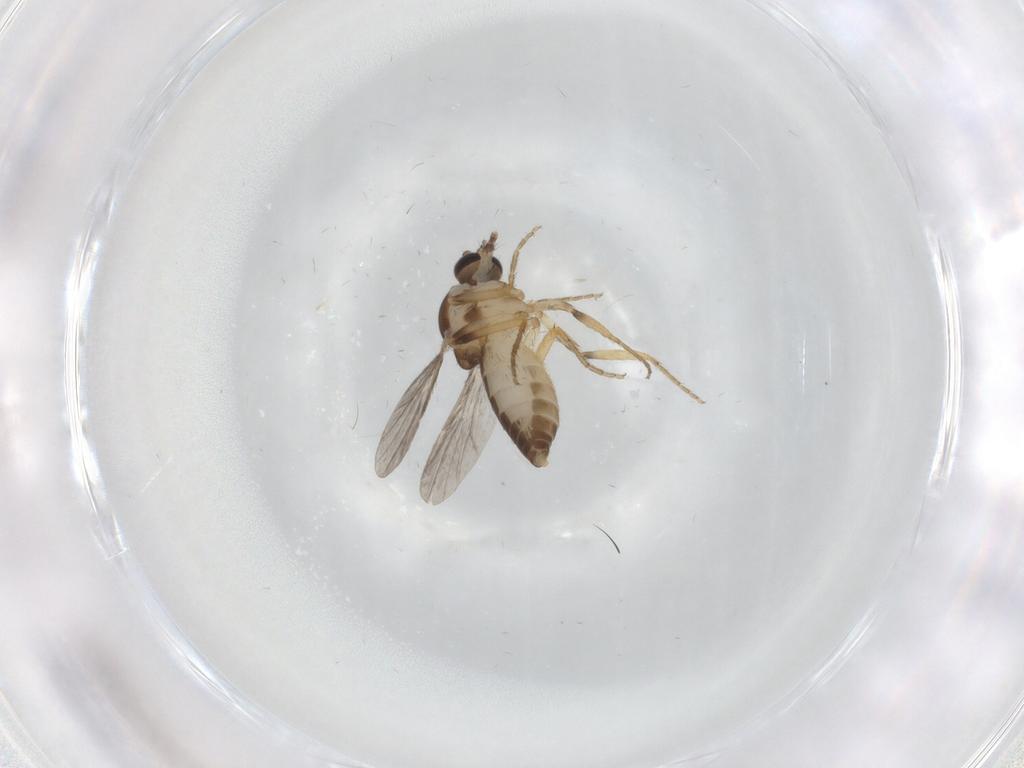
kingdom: Animalia
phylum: Arthropoda
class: Insecta
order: Diptera
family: Ceratopogonidae
